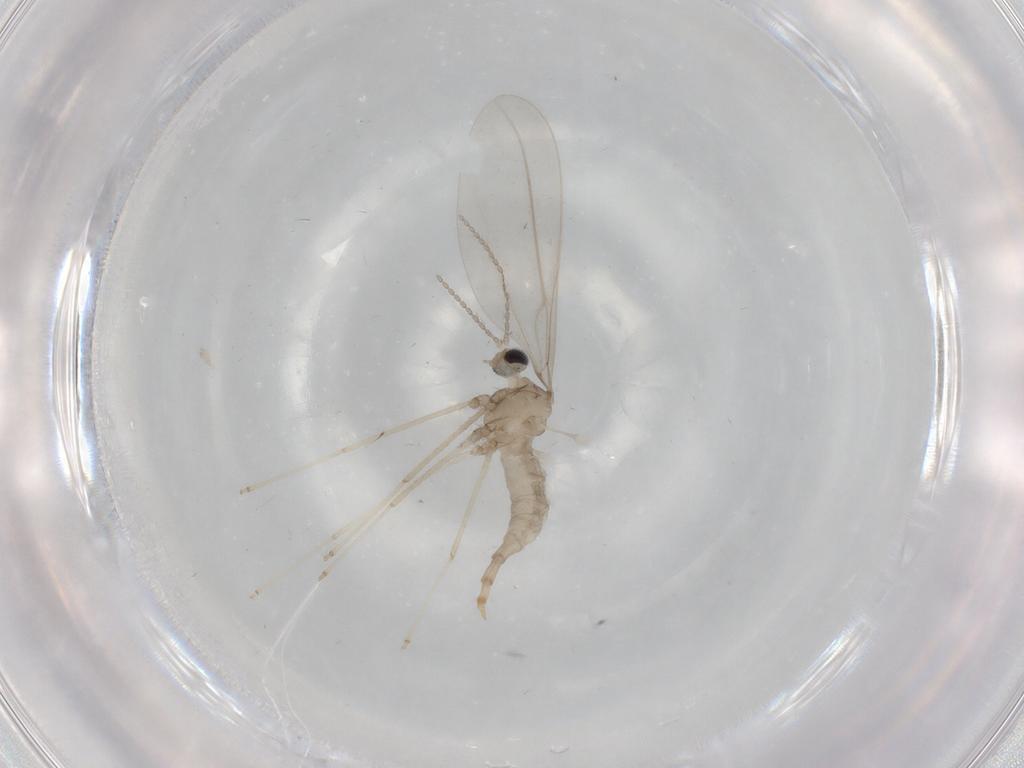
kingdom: Animalia
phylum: Arthropoda
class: Insecta
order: Diptera
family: Cecidomyiidae
